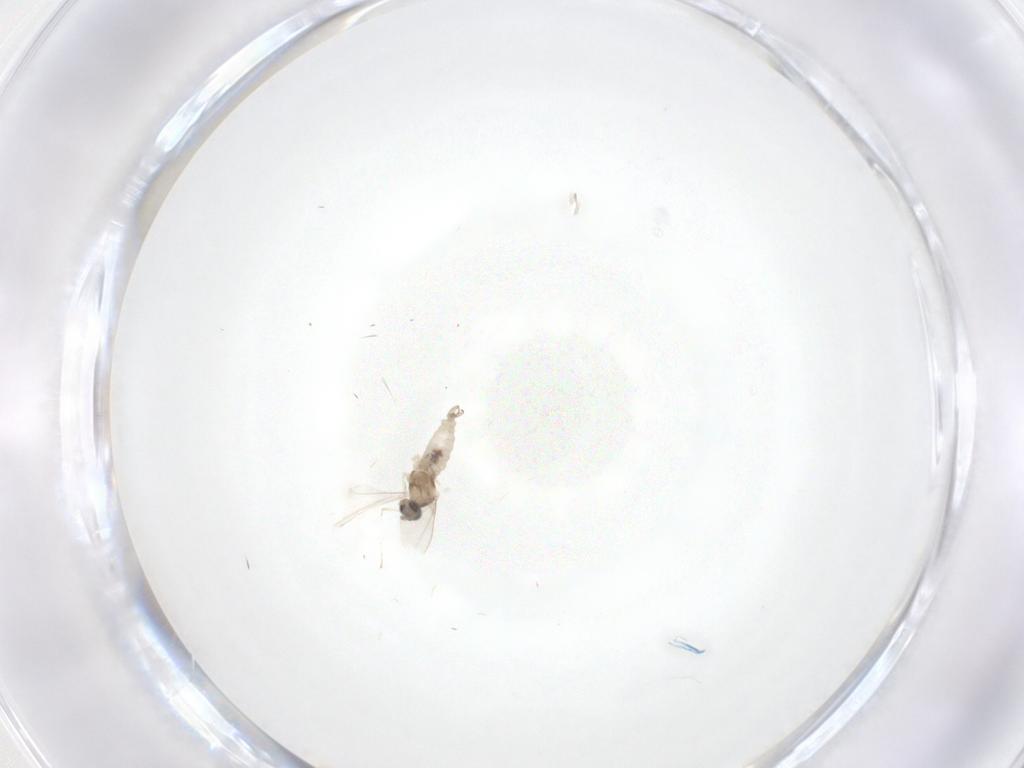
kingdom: Animalia
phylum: Arthropoda
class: Insecta
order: Diptera
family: Cecidomyiidae
